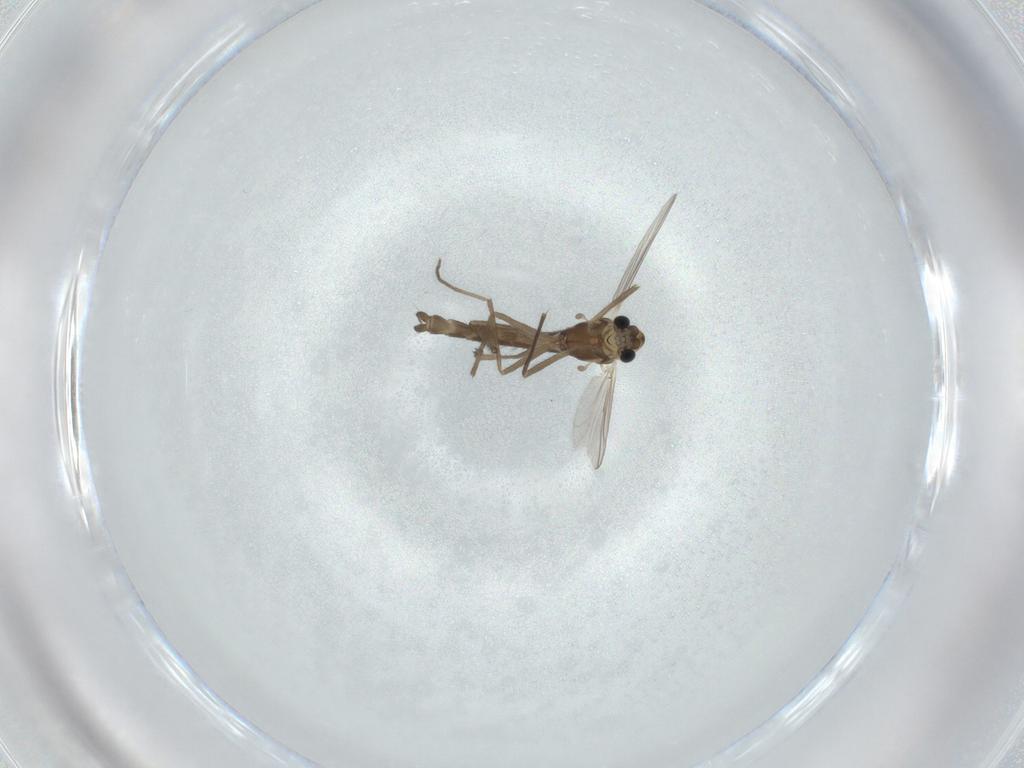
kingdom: Animalia
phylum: Arthropoda
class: Insecta
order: Diptera
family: Chironomidae
